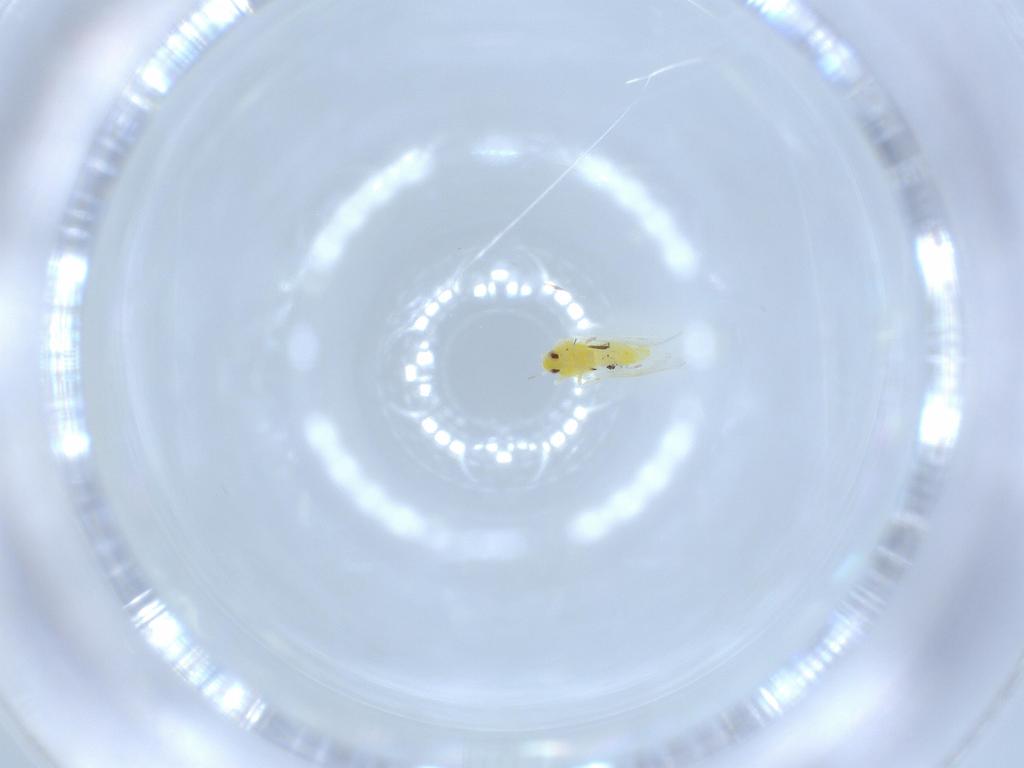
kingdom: Animalia
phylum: Arthropoda
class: Insecta
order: Hemiptera
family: Aleyrodidae
